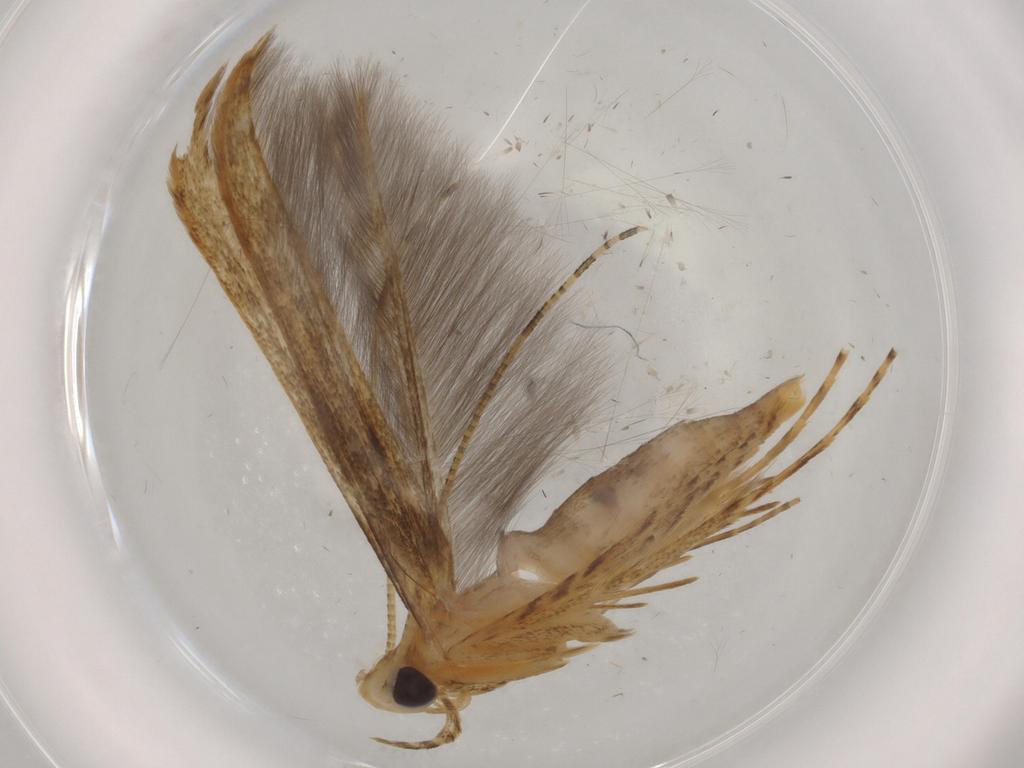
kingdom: Animalia
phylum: Arthropoda
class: Insecta
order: Lepidoptera
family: Batrachedridae
